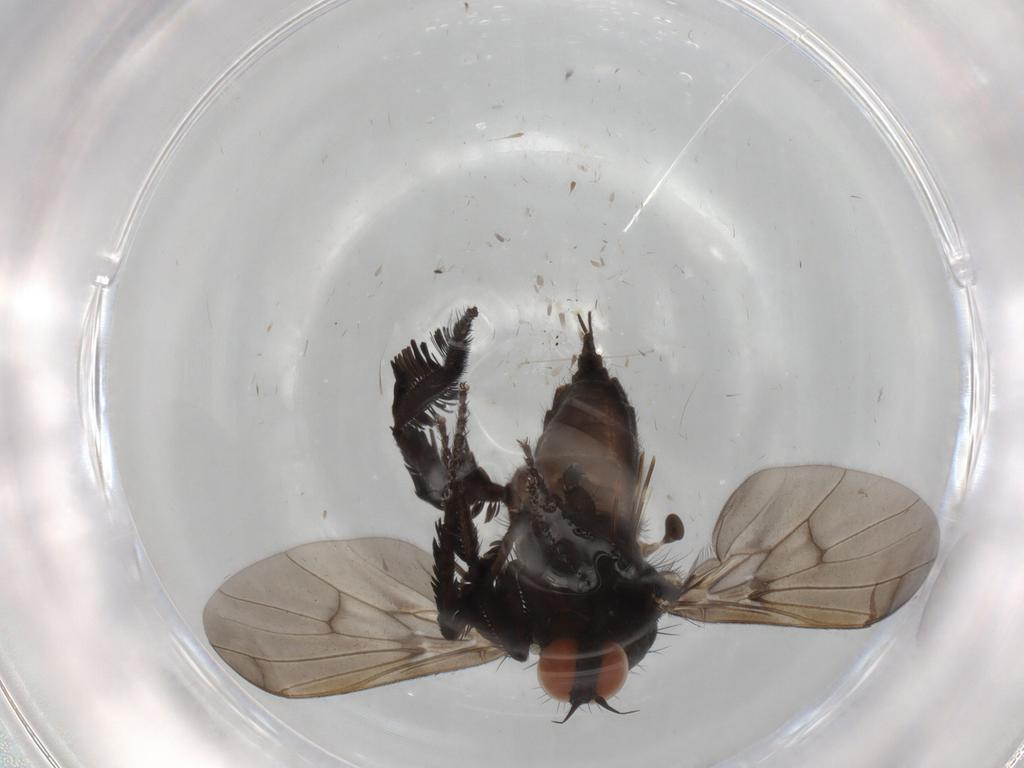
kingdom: Animalia
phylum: Arthropoda
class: Insecta
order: Diptera
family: Empididae
